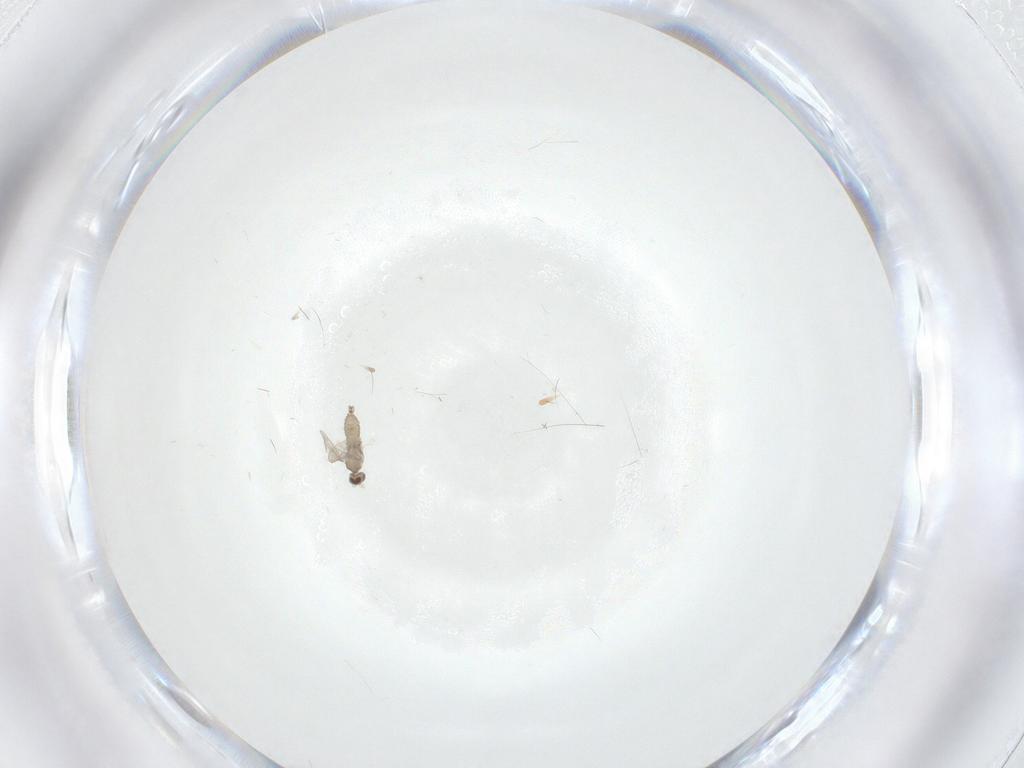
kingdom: Animalia
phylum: Arthropoda
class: Insecta
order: Diptera
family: Cecidomyiidae
